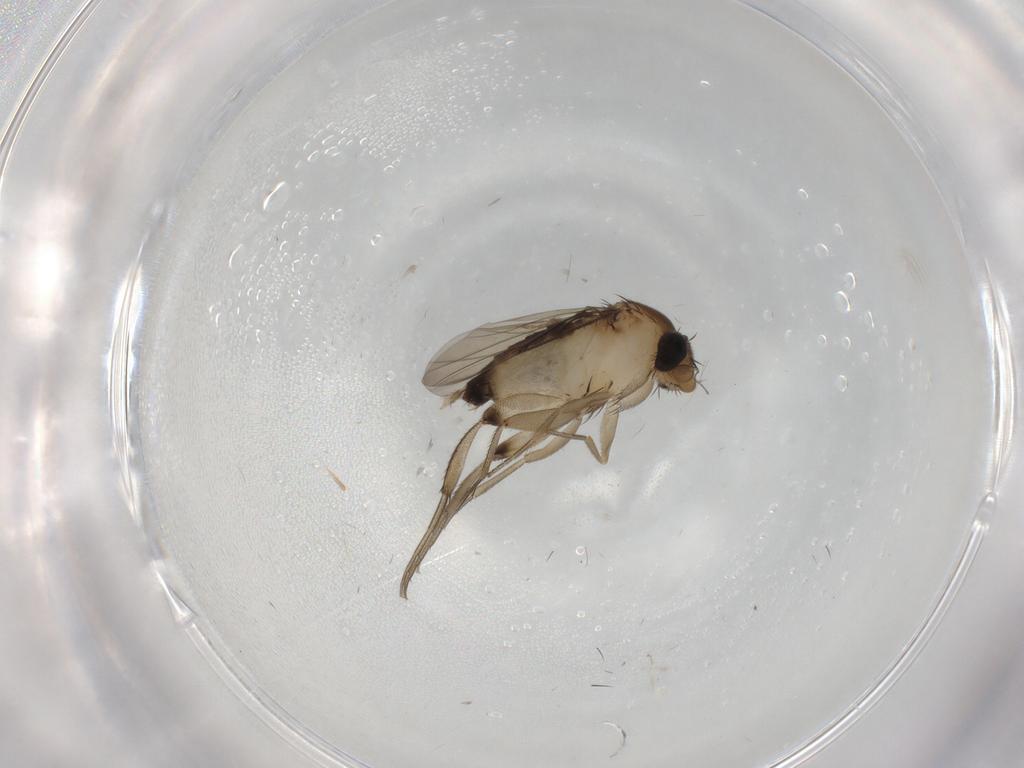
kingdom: Animalia
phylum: Arthropoda
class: Insecta
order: Diptera
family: Phoridae
